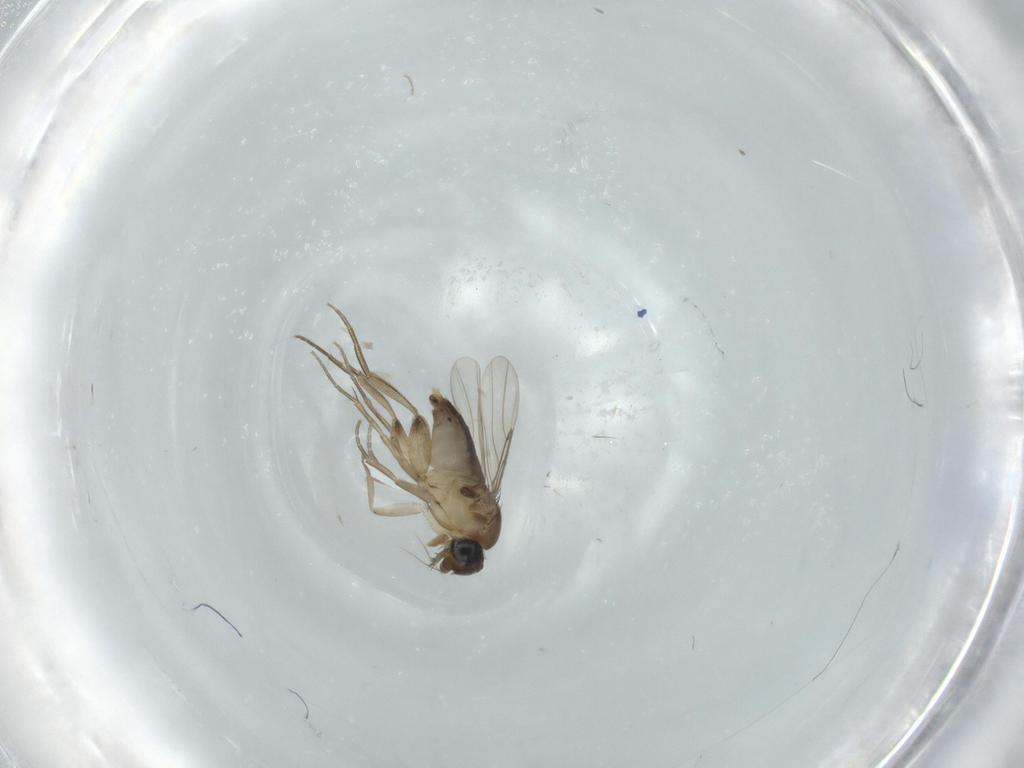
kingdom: Animalia
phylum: Arthropoda
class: Insecta
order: Diptera
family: Phoridae
